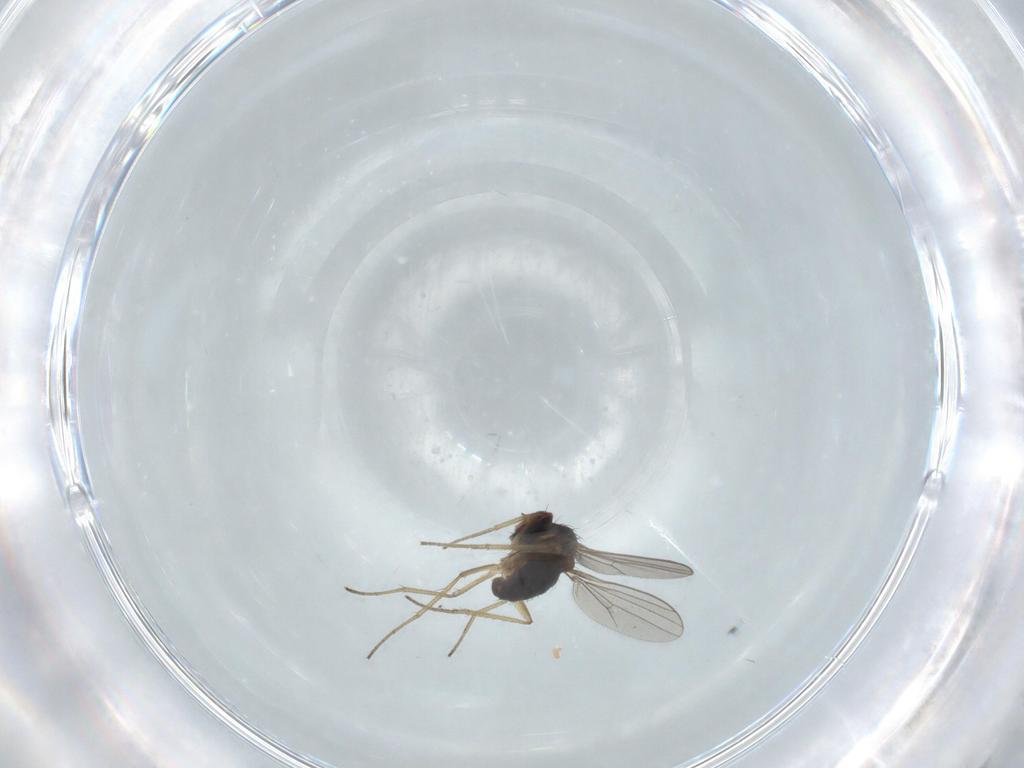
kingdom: Animalia
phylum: Arthropoda
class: Insecta
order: Diptera
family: Dolichopodidae
